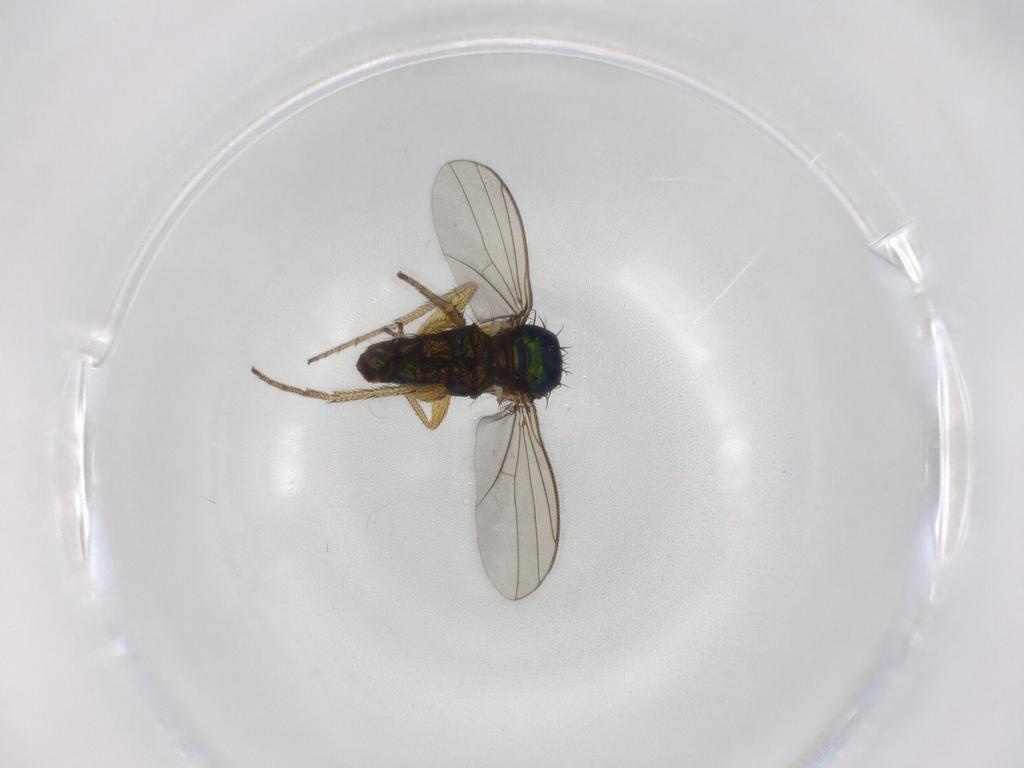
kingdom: Animalia
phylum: Arthropoda
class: Insecta
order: Diptera
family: Dolichopodidae
